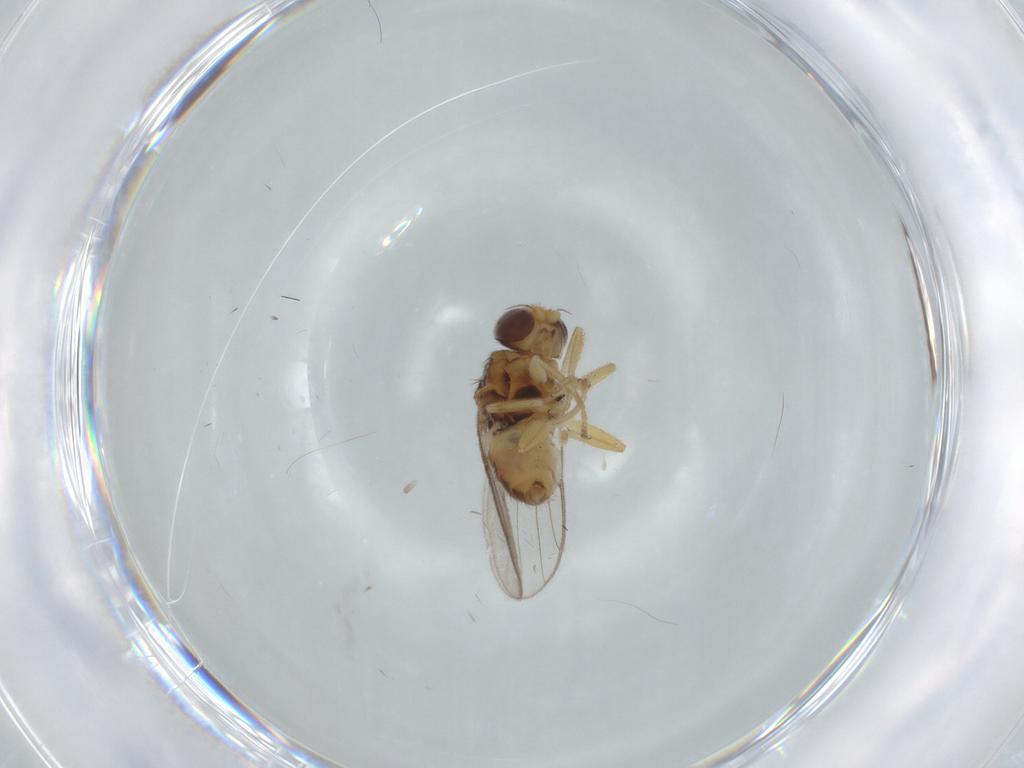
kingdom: Animalia
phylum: Arthropoda
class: Insecta
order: Diptera
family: Chloropidae
